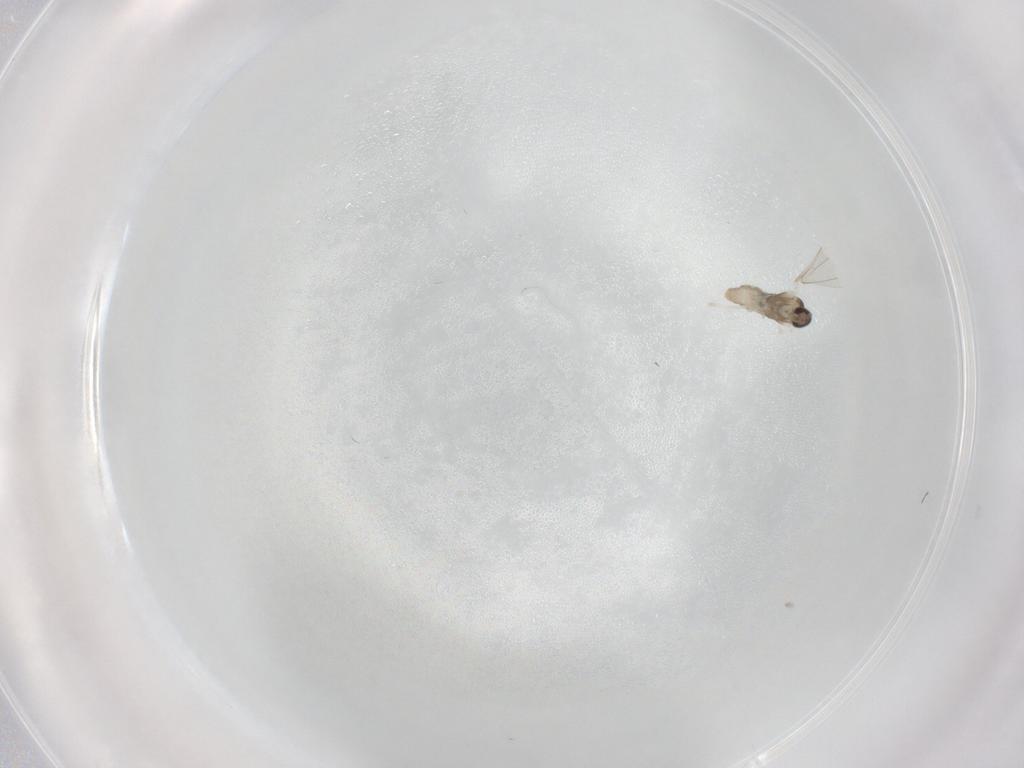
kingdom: Animalia
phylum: Arthropoda
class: Insecta
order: Diptera
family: Cecidomyiidae
